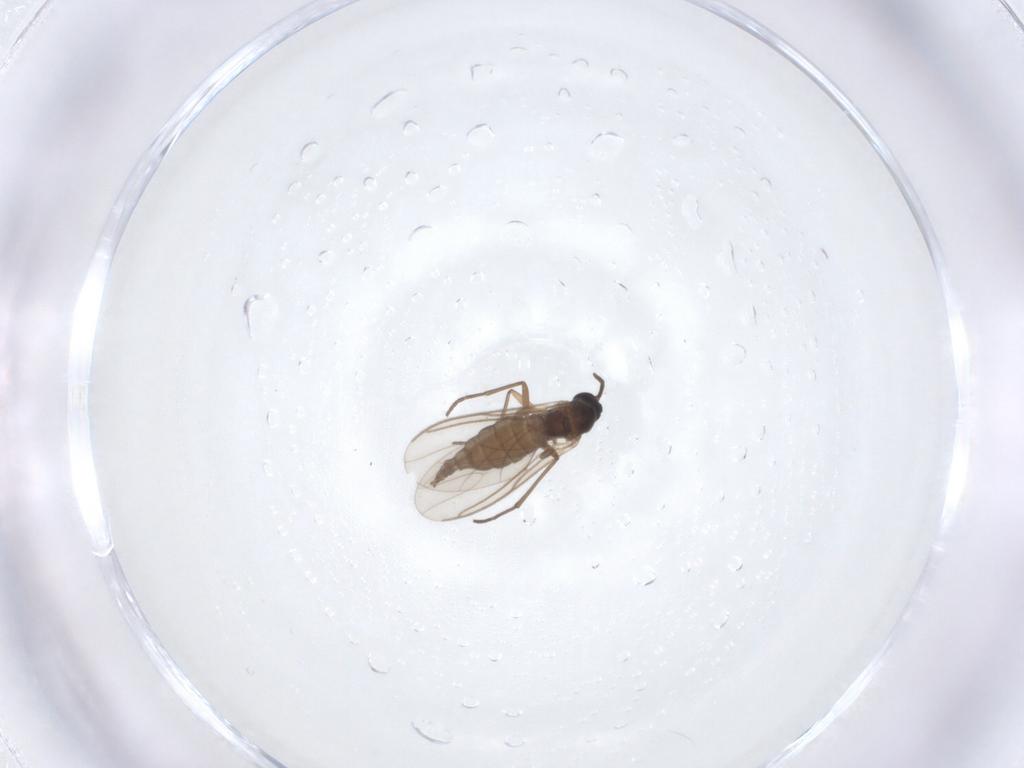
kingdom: Animalia
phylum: Arthropoda
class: Insecta
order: Diptera
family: Sciaridae
